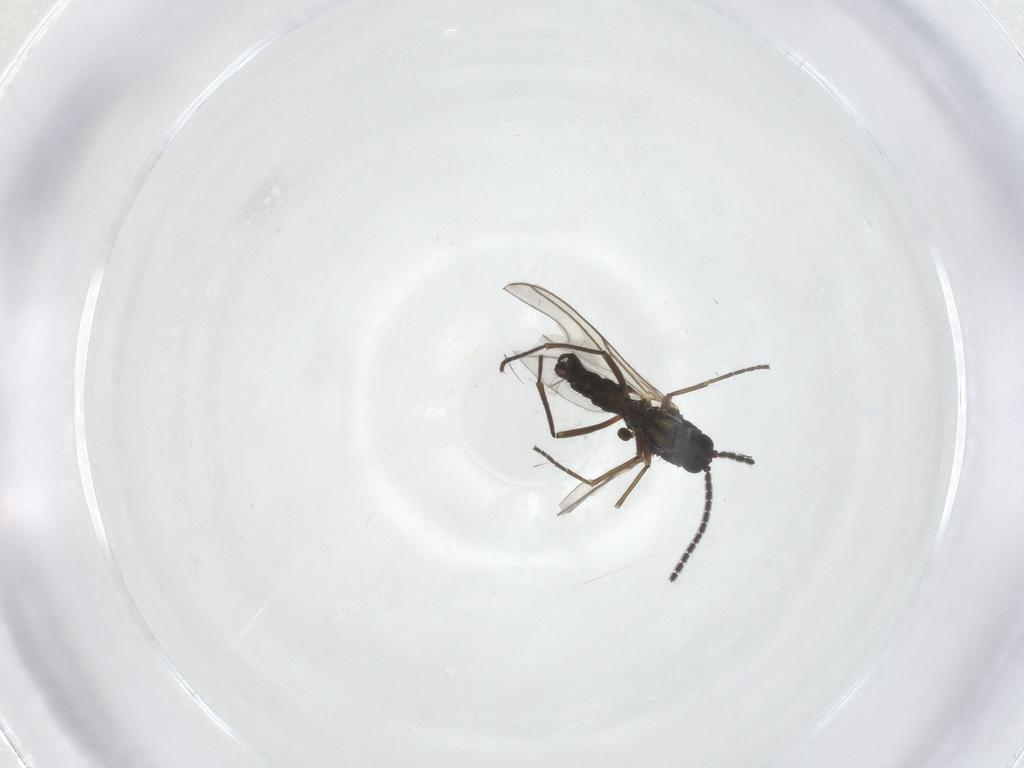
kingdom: Animalia
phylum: Arthropoda
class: Insecta
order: Diptera
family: Sciaridae
